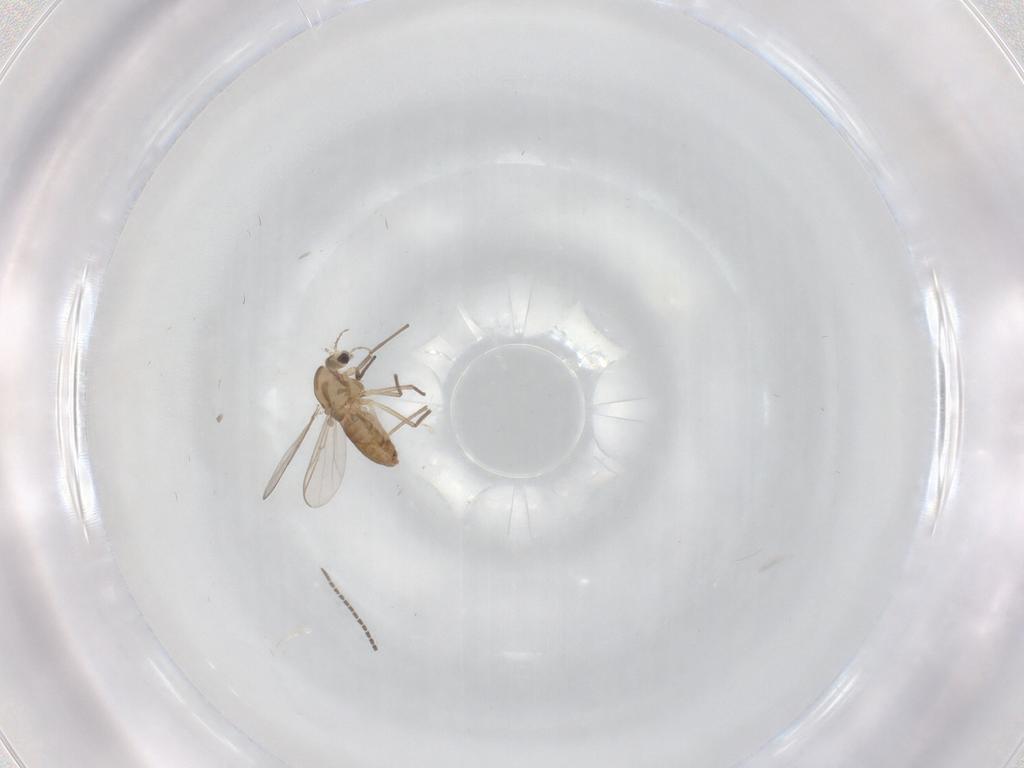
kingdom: Animalia
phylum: Arthropoda
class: Insecta
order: Diptera
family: Chironomidae
